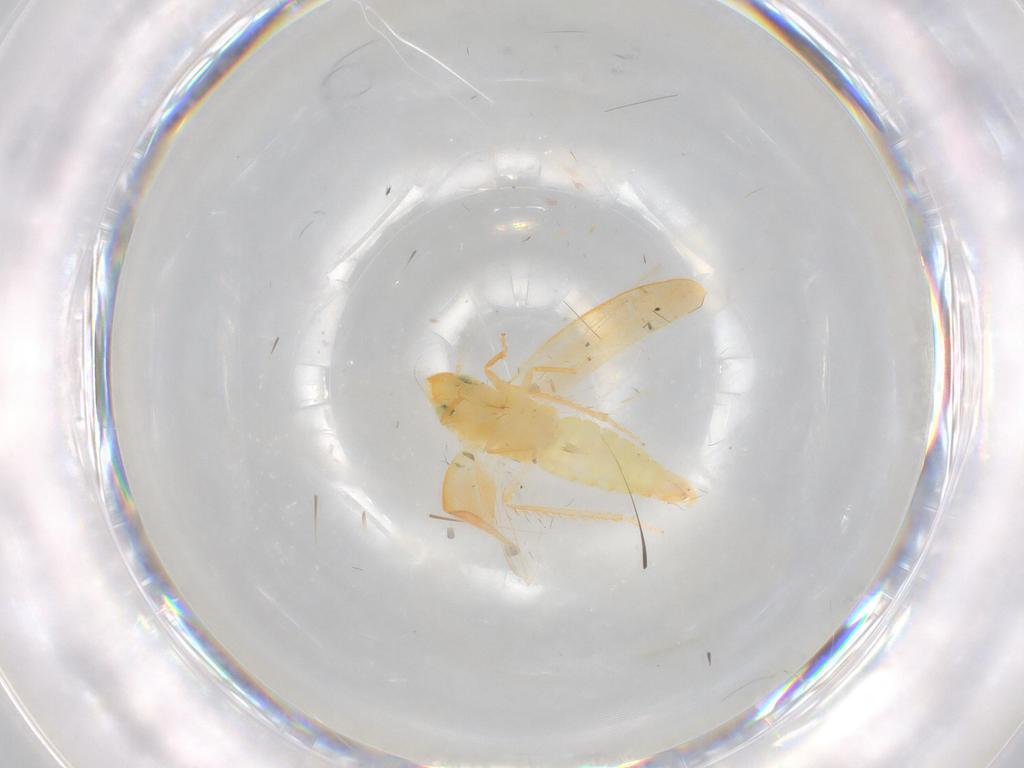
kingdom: Animalia
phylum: Arthropoda
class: Insecta
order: Hemiptera
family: Cicadellidae
